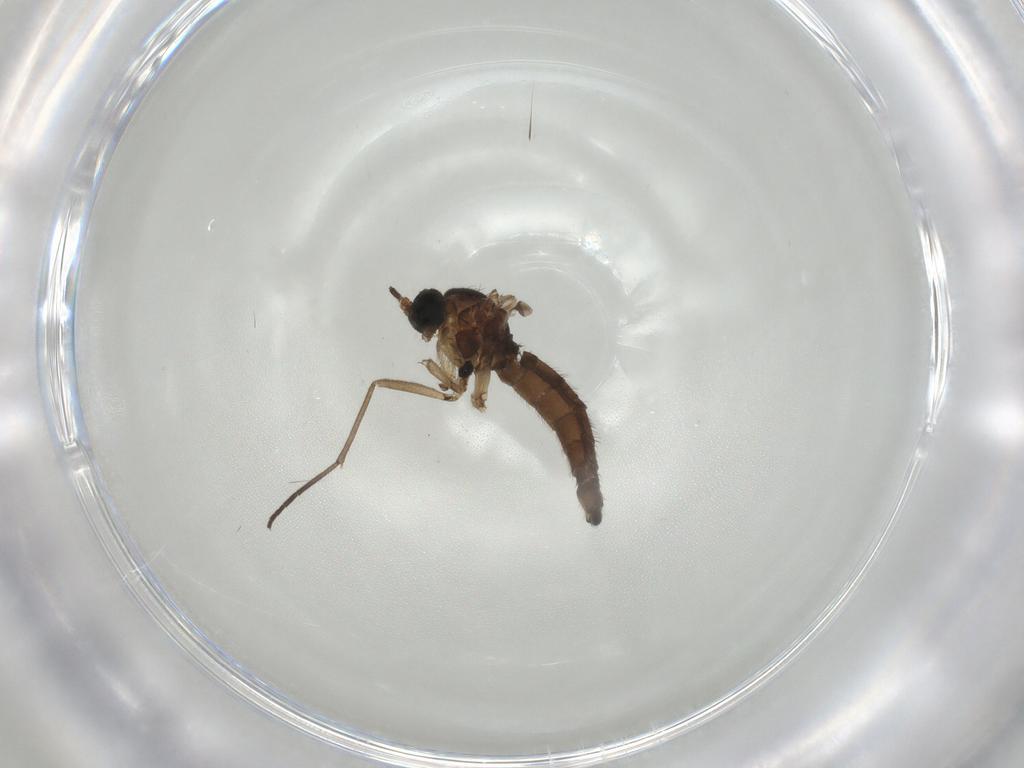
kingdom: Animalia
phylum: Arthropoda
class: Insecta
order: Diptera
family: Sciaridae
